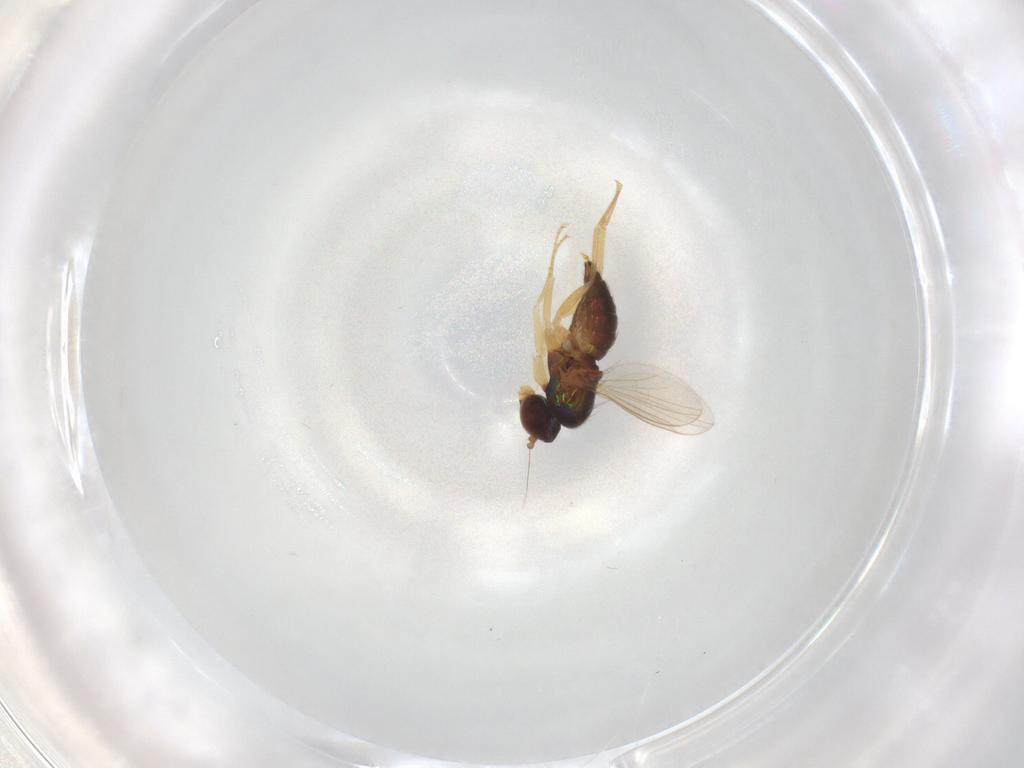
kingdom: Animalia
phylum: Arthropoda
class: Insecta
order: Diptera
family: Dolichopodidae
